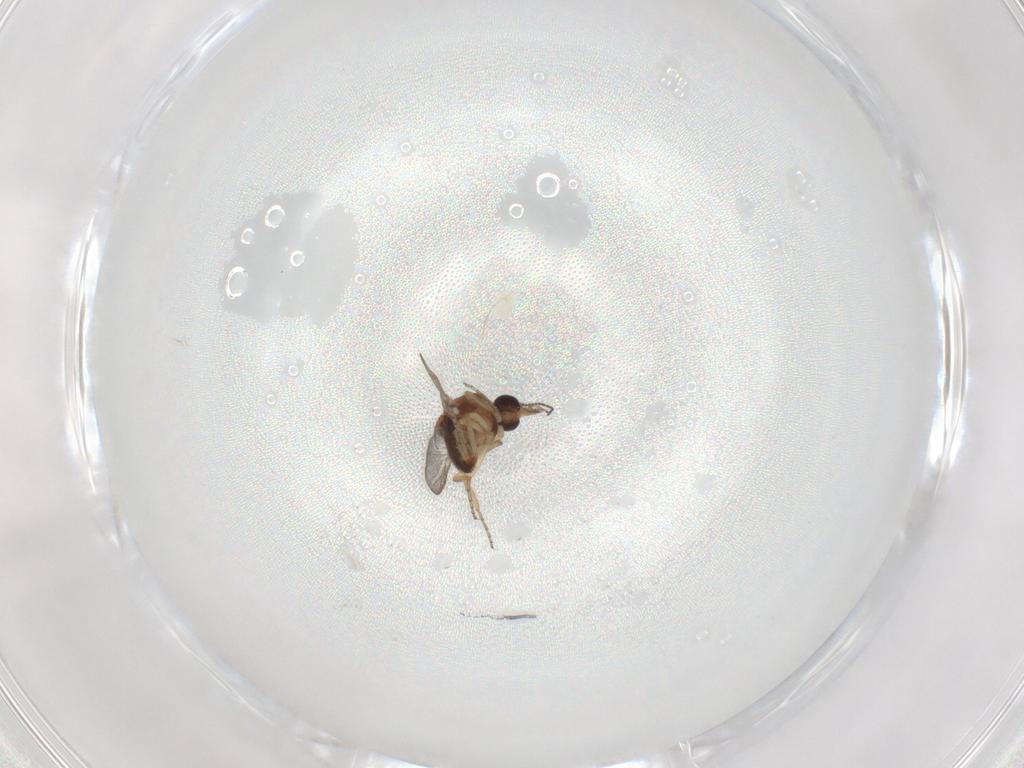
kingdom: Animalia
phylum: Arthropoda
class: Insecta
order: Diptera
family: Ceratopogonidae
